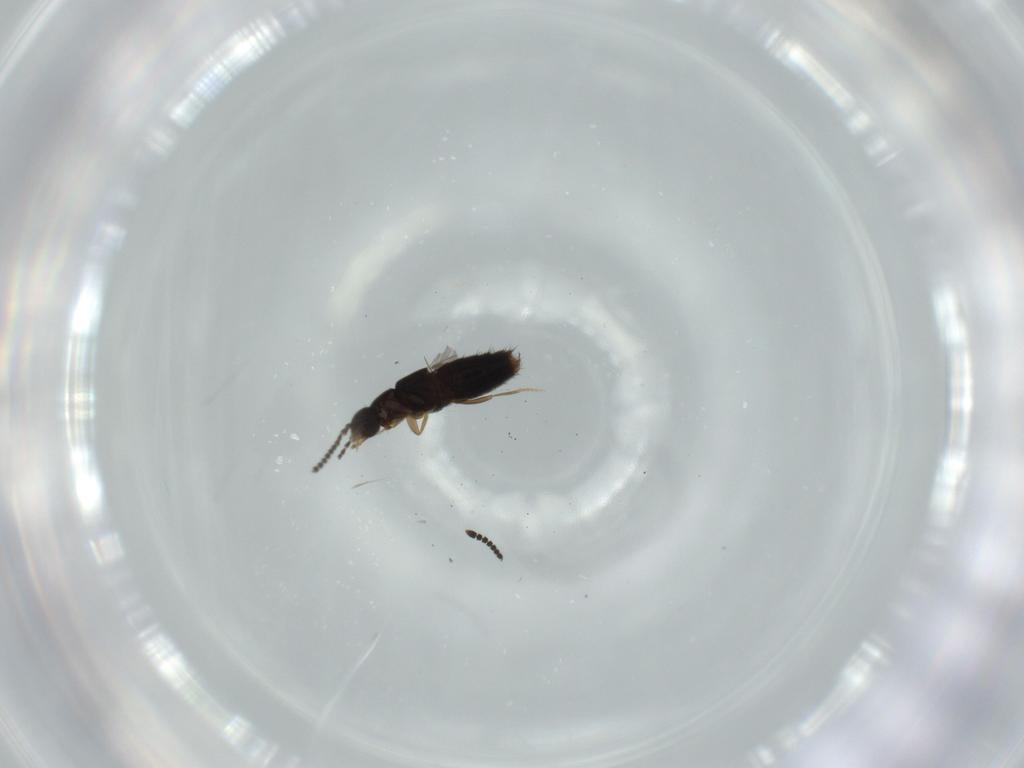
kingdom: Animalia
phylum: Arthropoda
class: Insecta
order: Coleoptera
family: Staphylinidae
